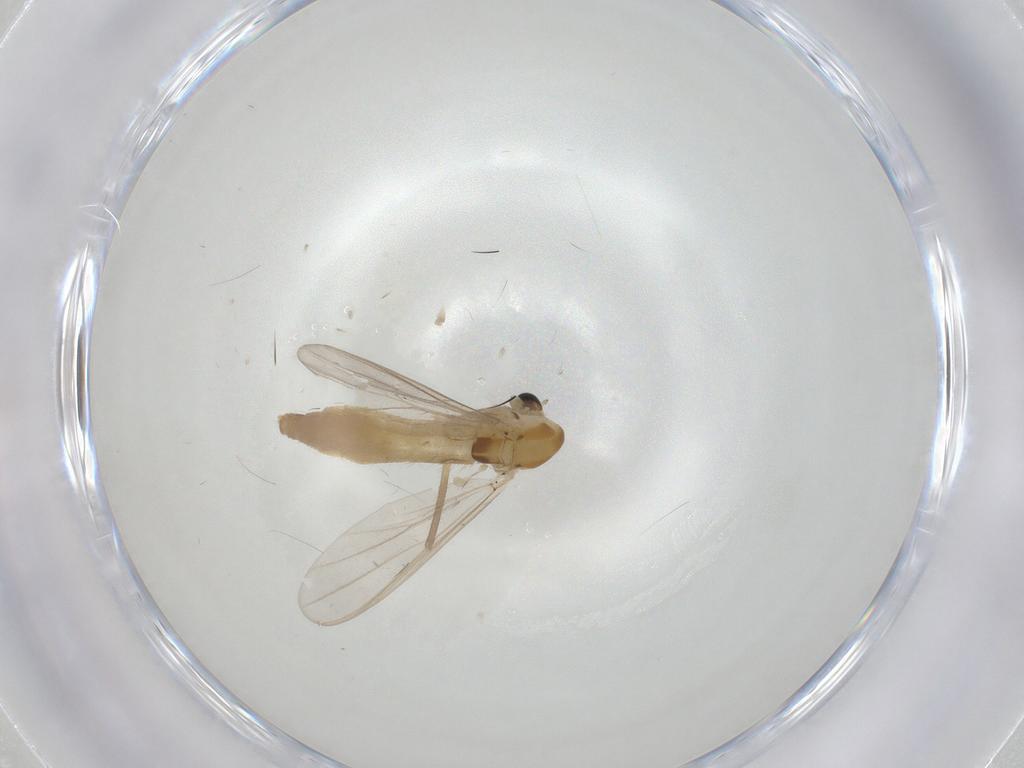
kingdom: Animalia
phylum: Arthropoda
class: Insecta
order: Diptera
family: Chironomidae
